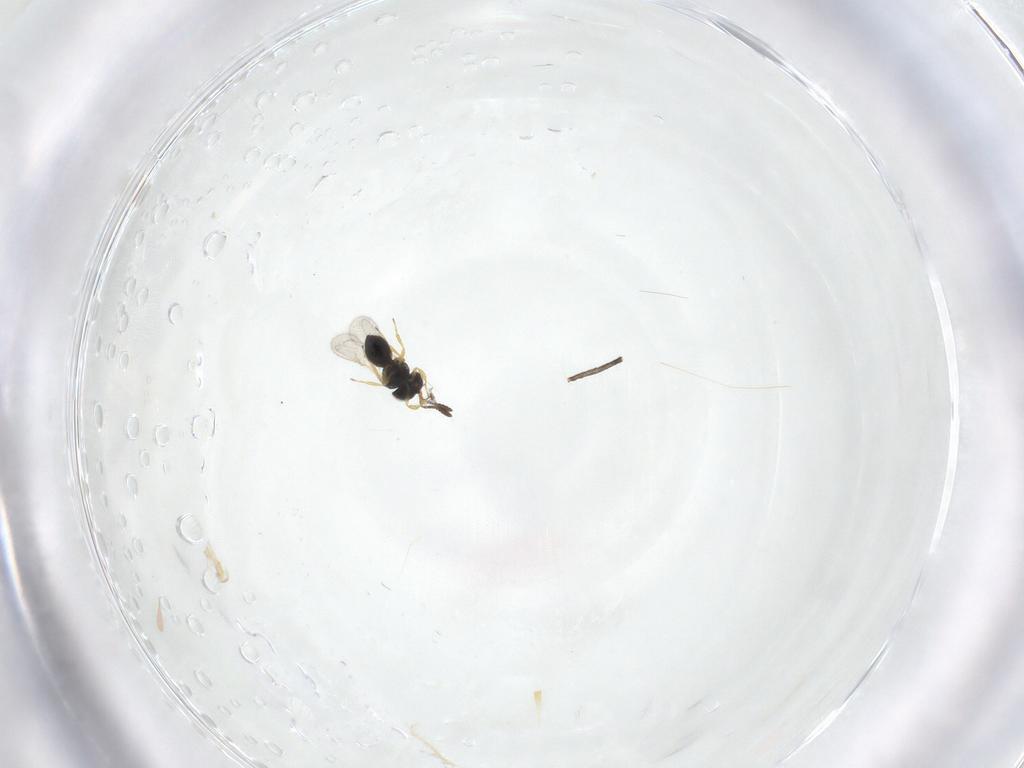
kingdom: Animalia
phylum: Arthropoda
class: Insecta
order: Hymenoptera
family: Scelionidae
